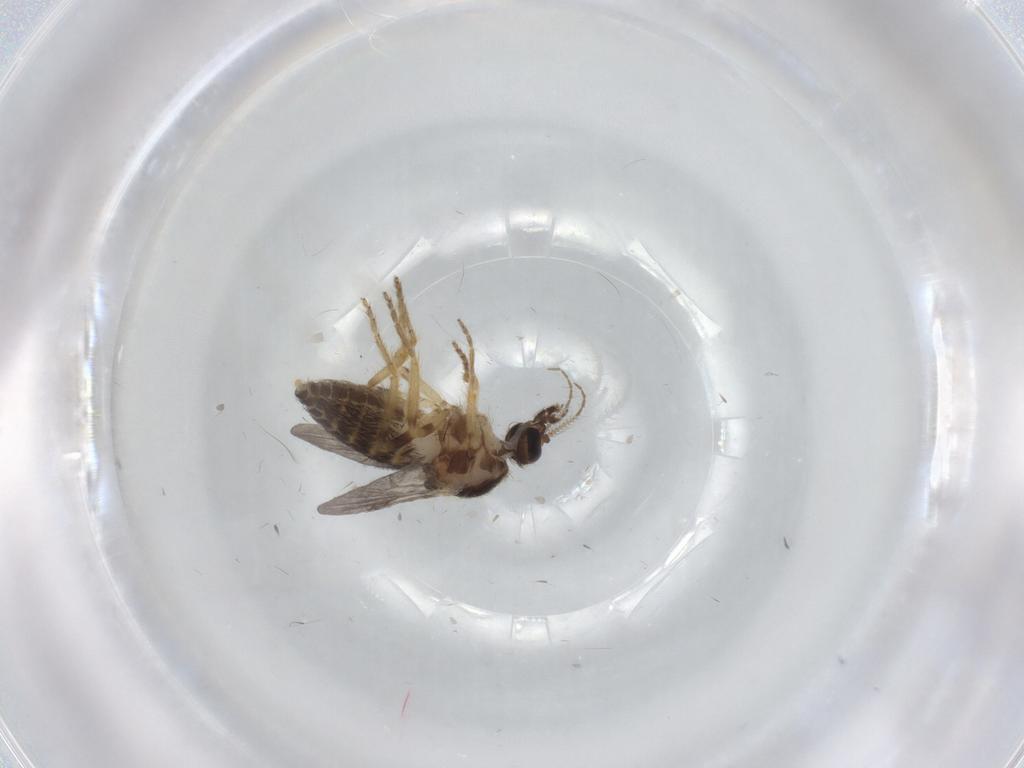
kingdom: Animalia
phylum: Arthropoda
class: Insecta
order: Diptera
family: Ceratopogonidae
